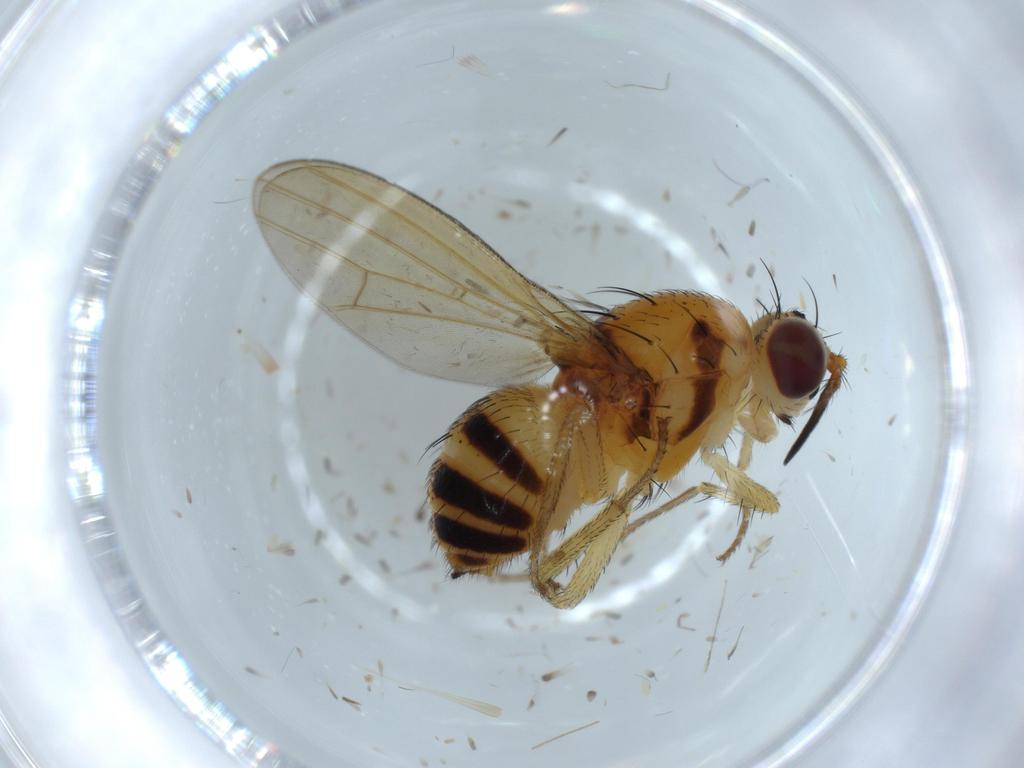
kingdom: Animalia
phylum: Arthropoda
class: Insecta
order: Diptera
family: Lauxaniidae
